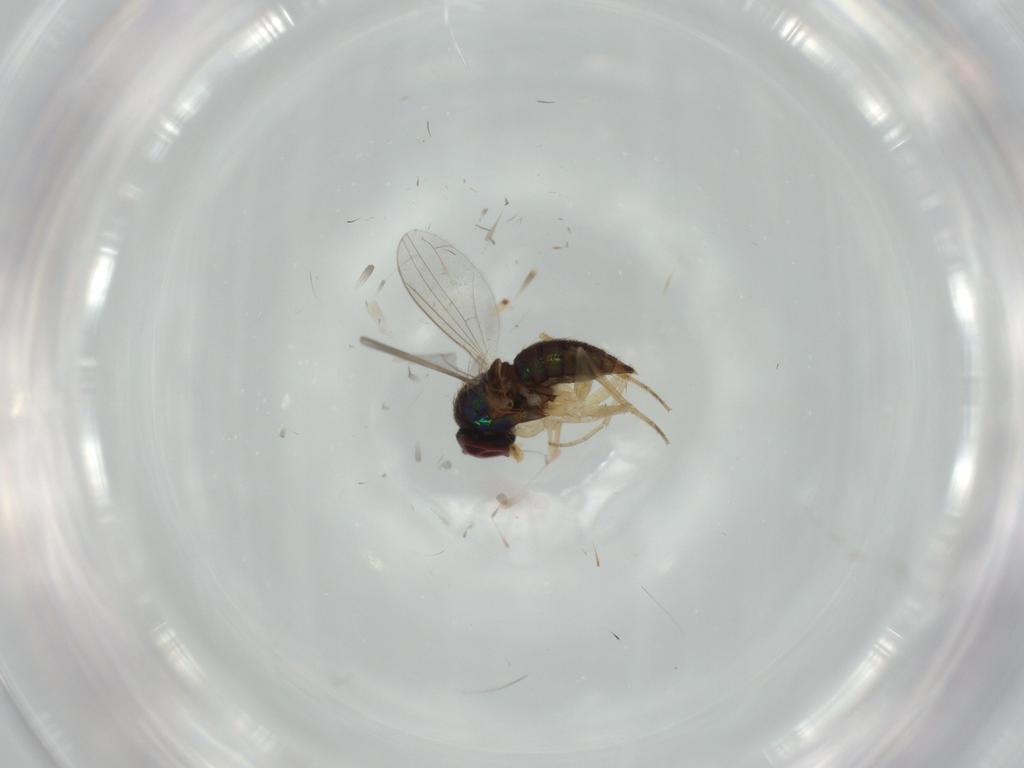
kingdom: Animalia
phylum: Arthropoda
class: Insecta
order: Diptera
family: Dolichopodidae
